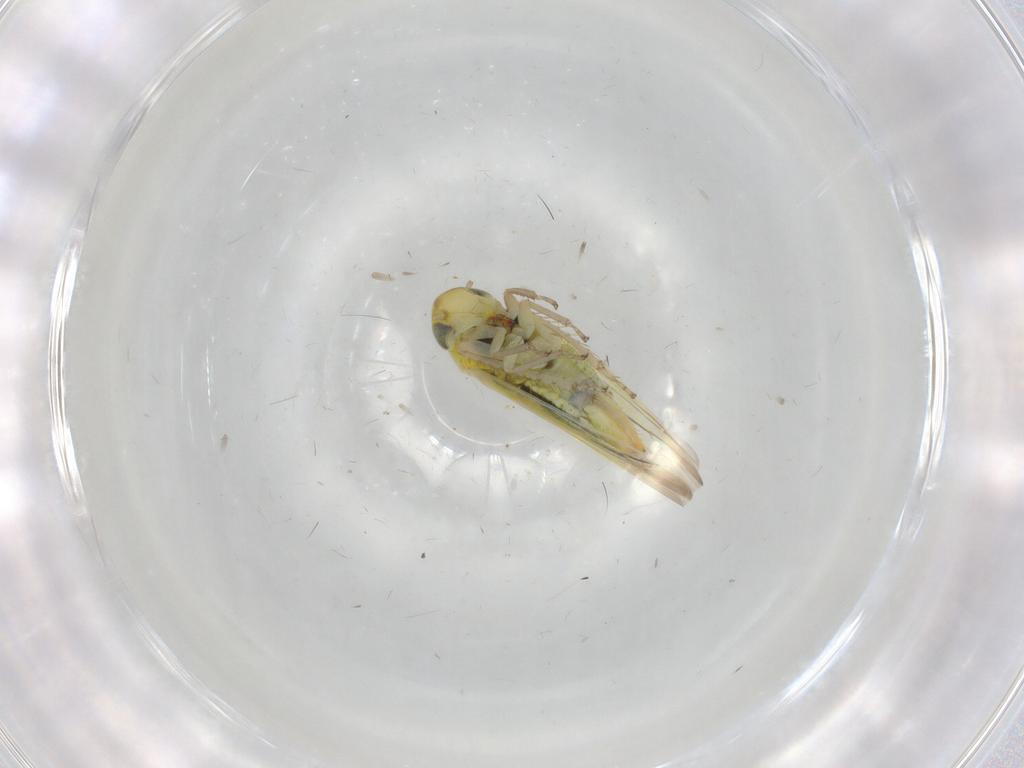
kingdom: Animalia
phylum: Arthropoda
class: Insecta
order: Hemiptera
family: Cicadellidae
